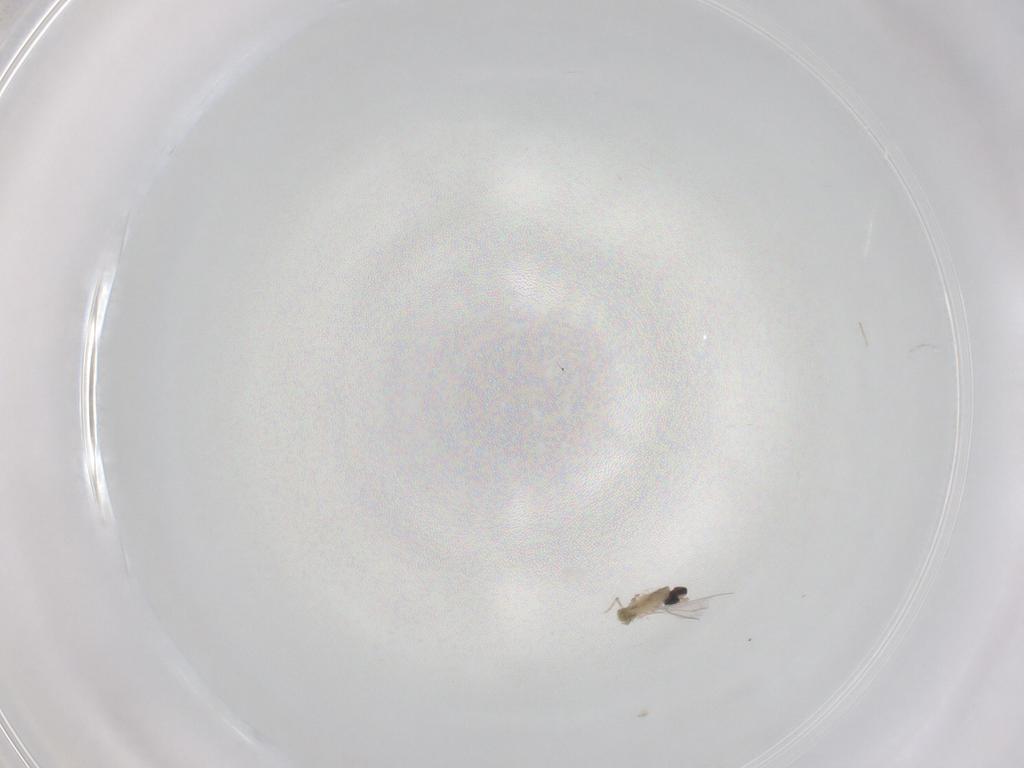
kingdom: Animalia
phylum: Arthropoda
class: Insecta
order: Diptera
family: Cecidomyiidae
